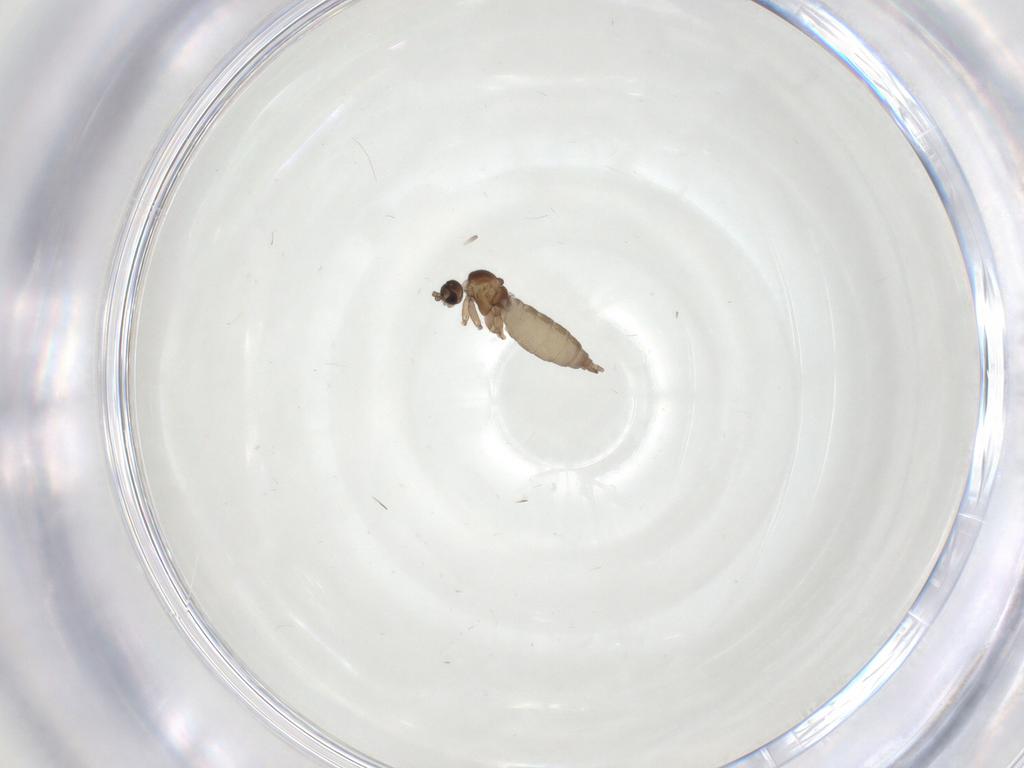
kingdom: Animalia
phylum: Arthropoda
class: Insecta
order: Diptera
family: Chironomidae
